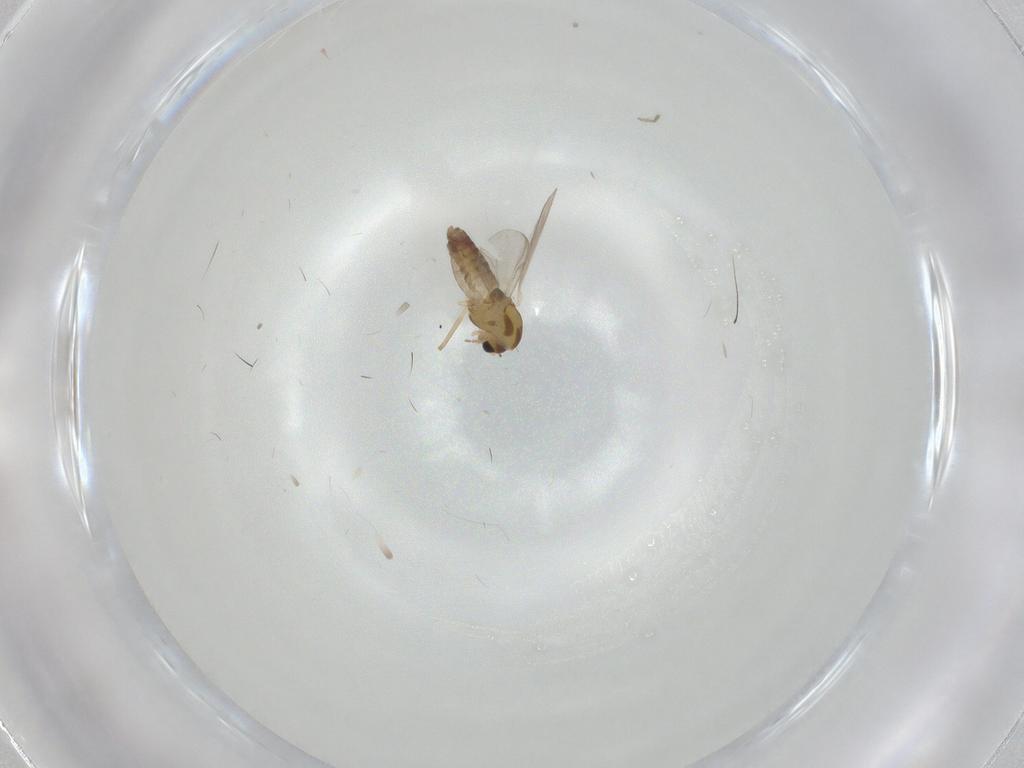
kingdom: Animalia
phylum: Arthropoda
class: Insecta
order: Diptera
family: Chironomidae
